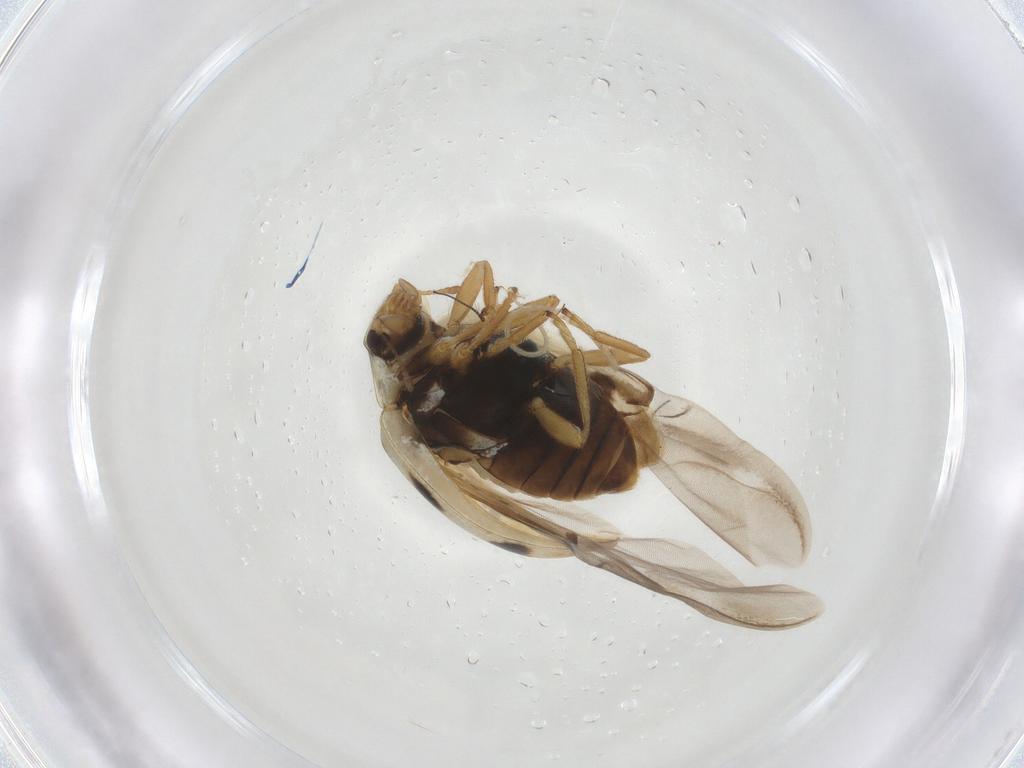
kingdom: Animalia
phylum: Arthropoda
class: Insecta
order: Coleoptera
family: Coccinellidae
